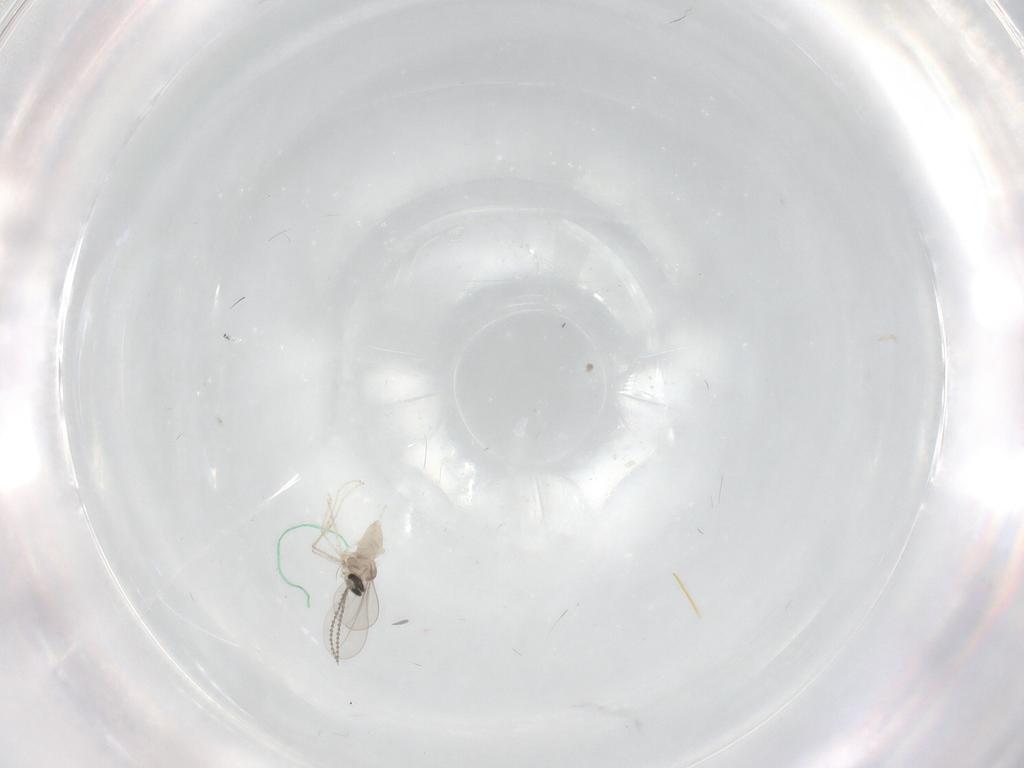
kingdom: Animalia
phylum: Arthropoda
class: Insecta
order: Diptera
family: Cecidomyiidae
